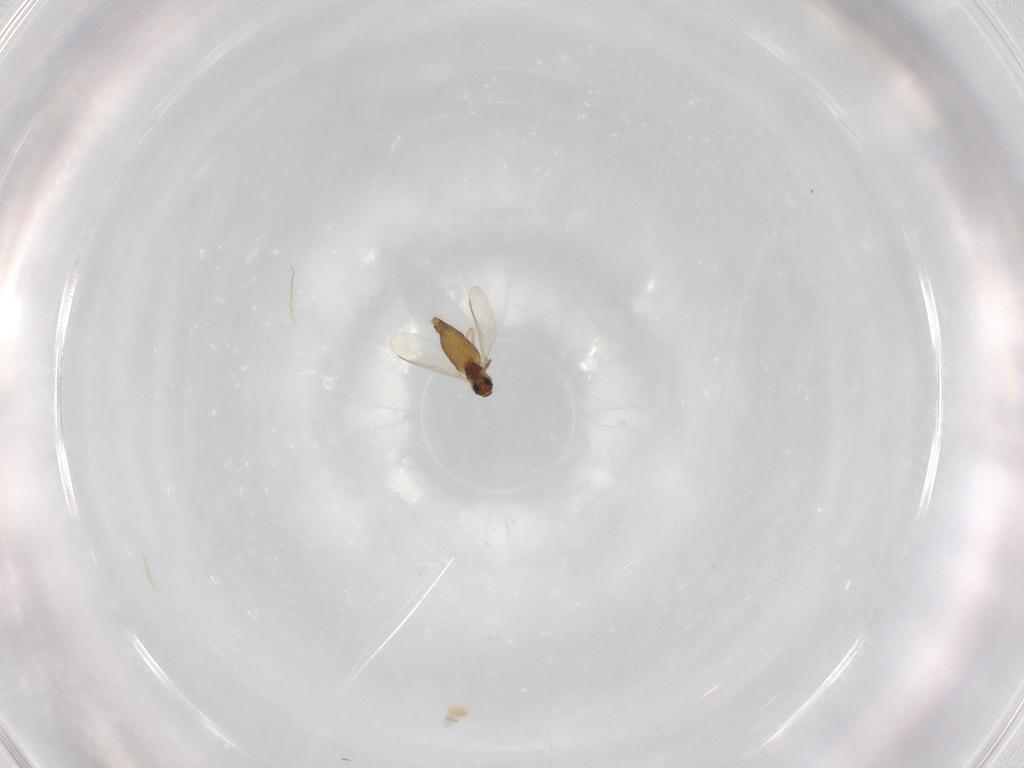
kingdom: Animalia
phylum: Arthropoda
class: Insecta
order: Diptera
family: Chironomidae
